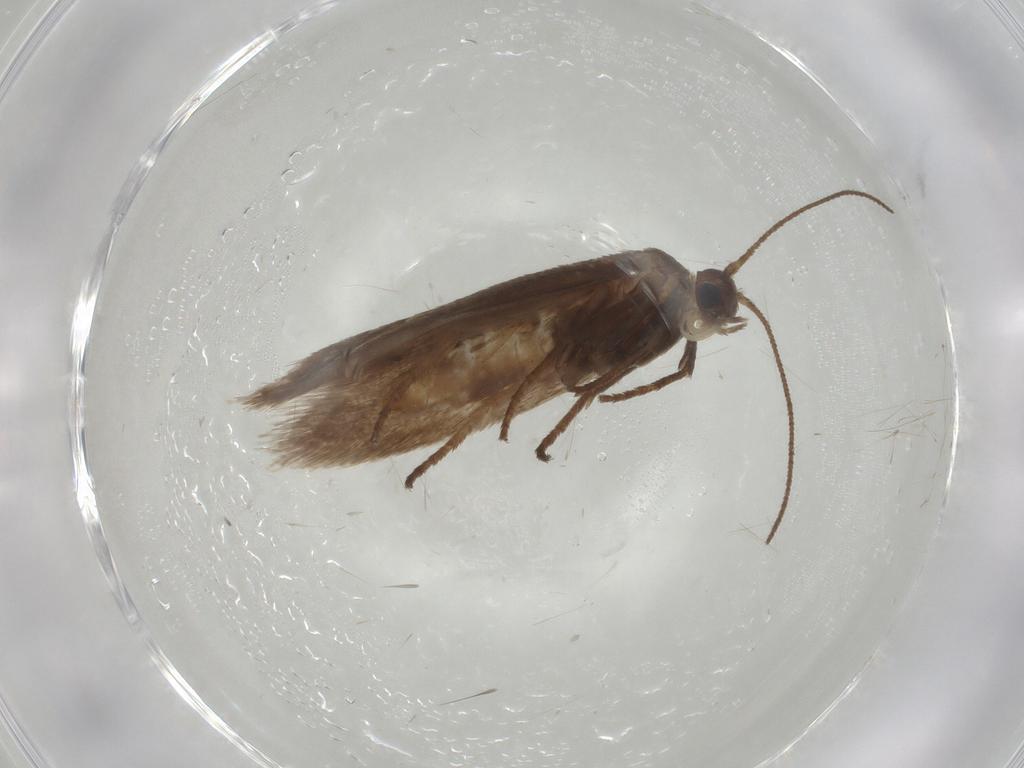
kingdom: Animalia
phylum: Arthropoda
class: Insecta
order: Lepidoptera
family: Limacodidae
